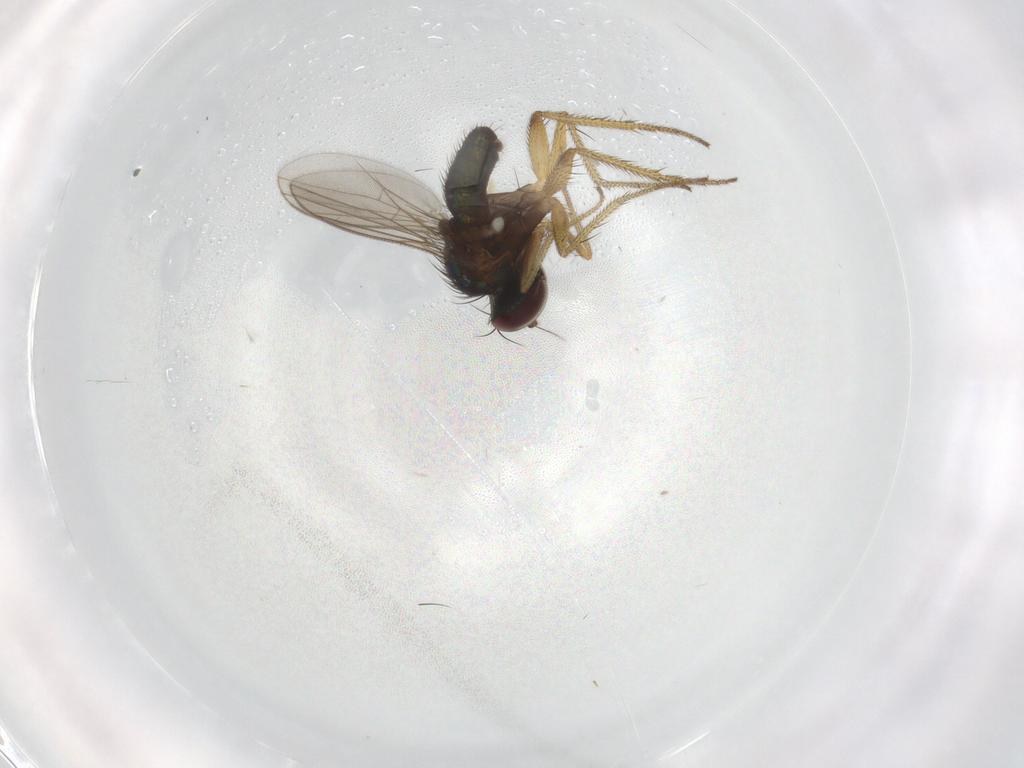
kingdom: Animalia
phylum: Arthropoda
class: Insecta
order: Diptera
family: Dolichopodidae
